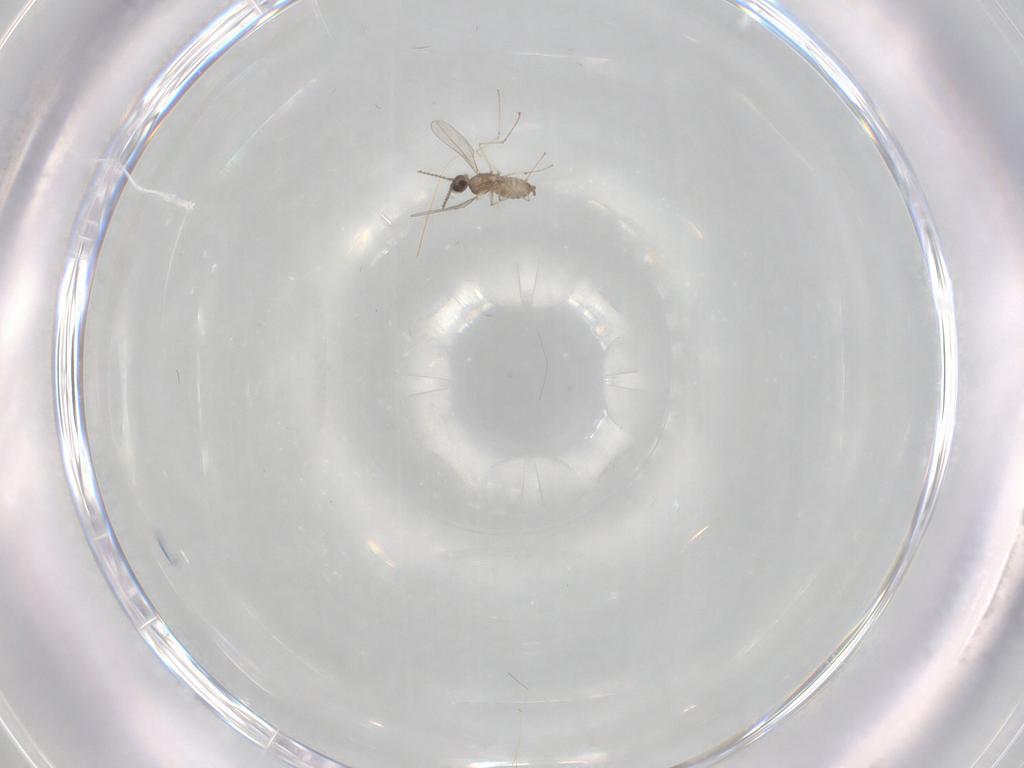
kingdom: Animalia
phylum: Arthropoda
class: Insecta
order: Diptera
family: Cecidomyiidae
